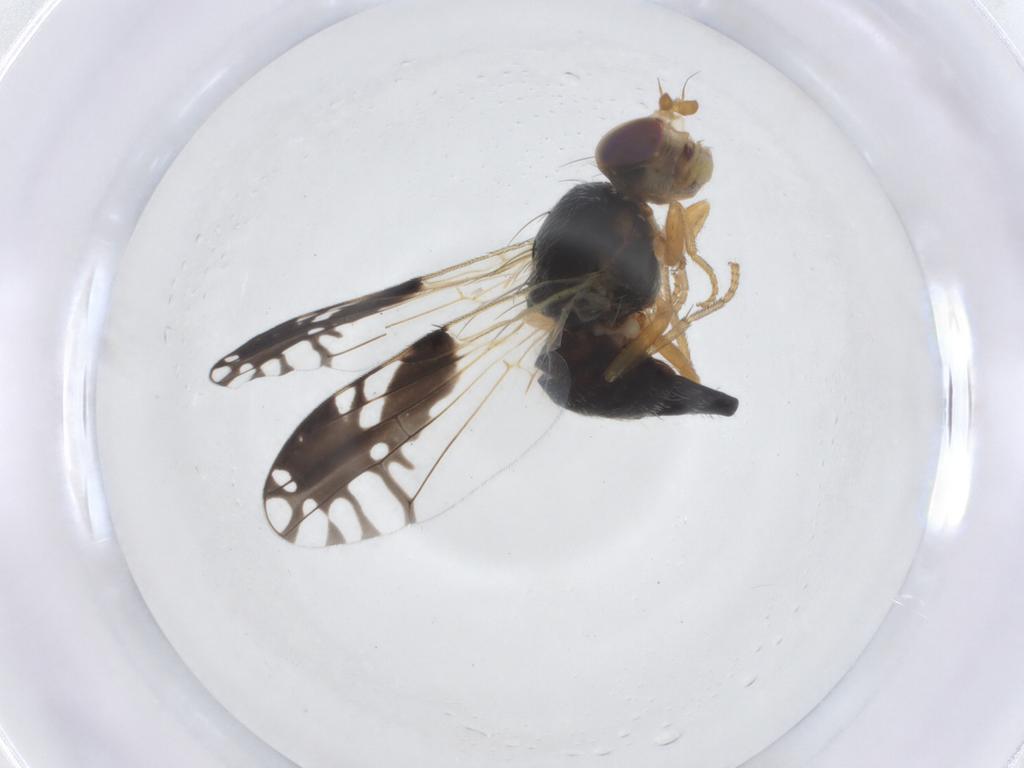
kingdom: Animalia
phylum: Arthropoda
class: Insecta
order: Diptera
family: Tephritidae
